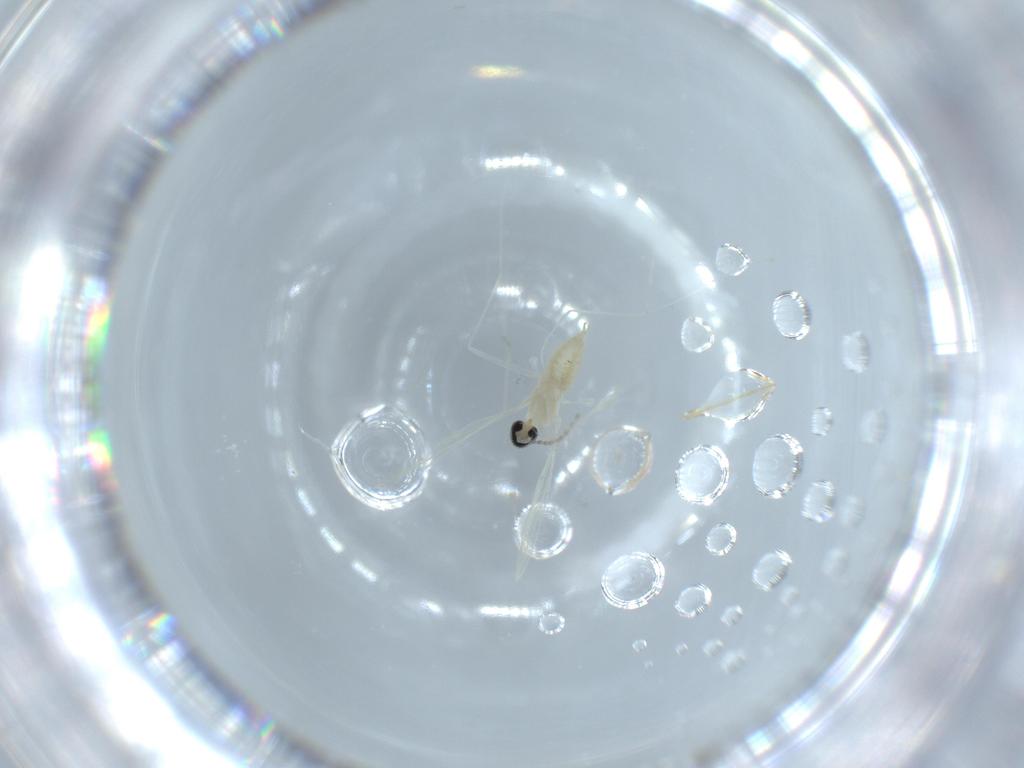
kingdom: Animalia
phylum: Arthropoda
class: Insecta
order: Diptera
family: Cecidomyiidae
